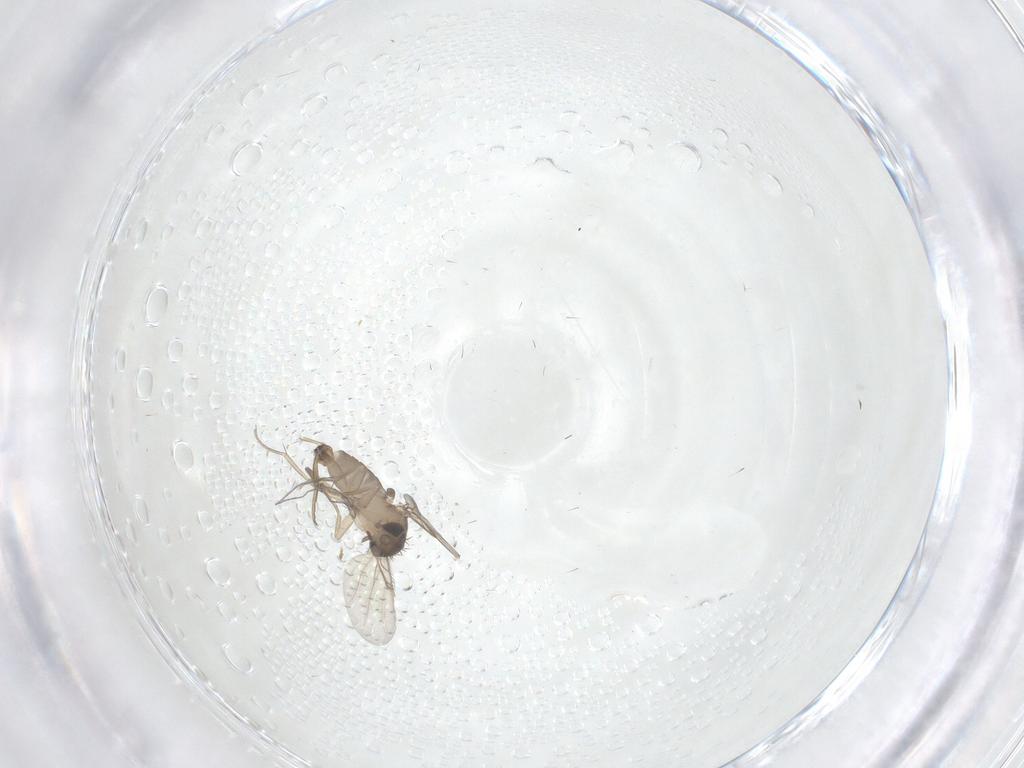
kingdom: Animalia
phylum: Arthropoda
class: Insecta
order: Diptera
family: Phoridae
